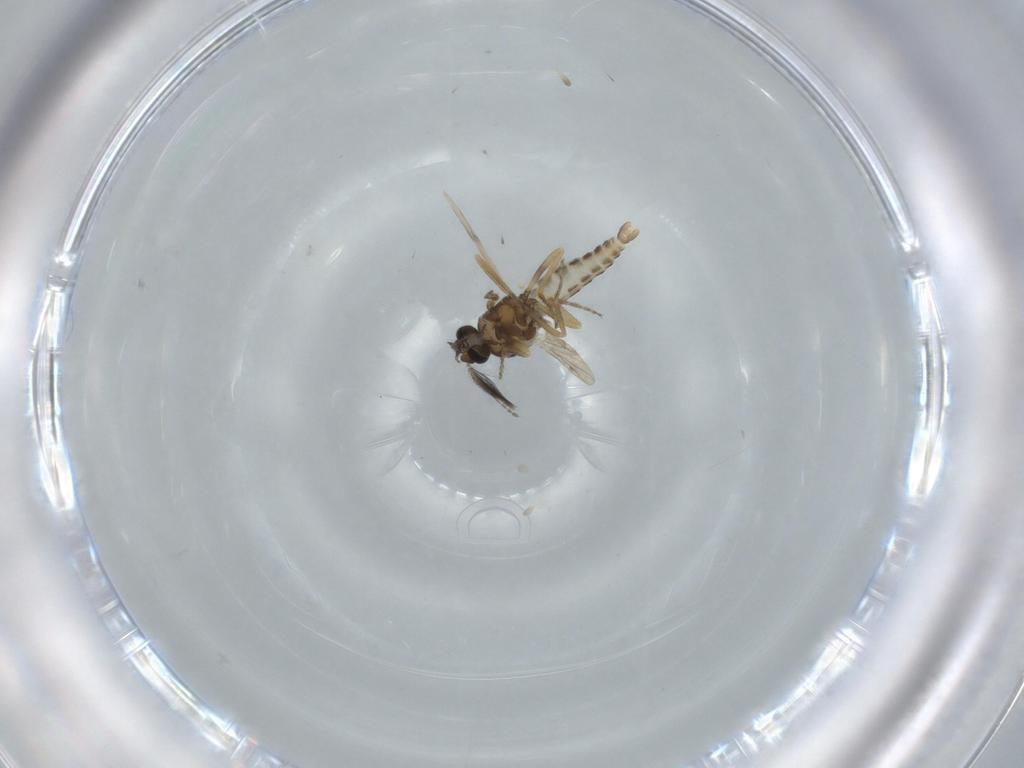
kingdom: Animalia
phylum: Arthropoda
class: Insecta
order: Diptera
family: Ceratopogonidae
